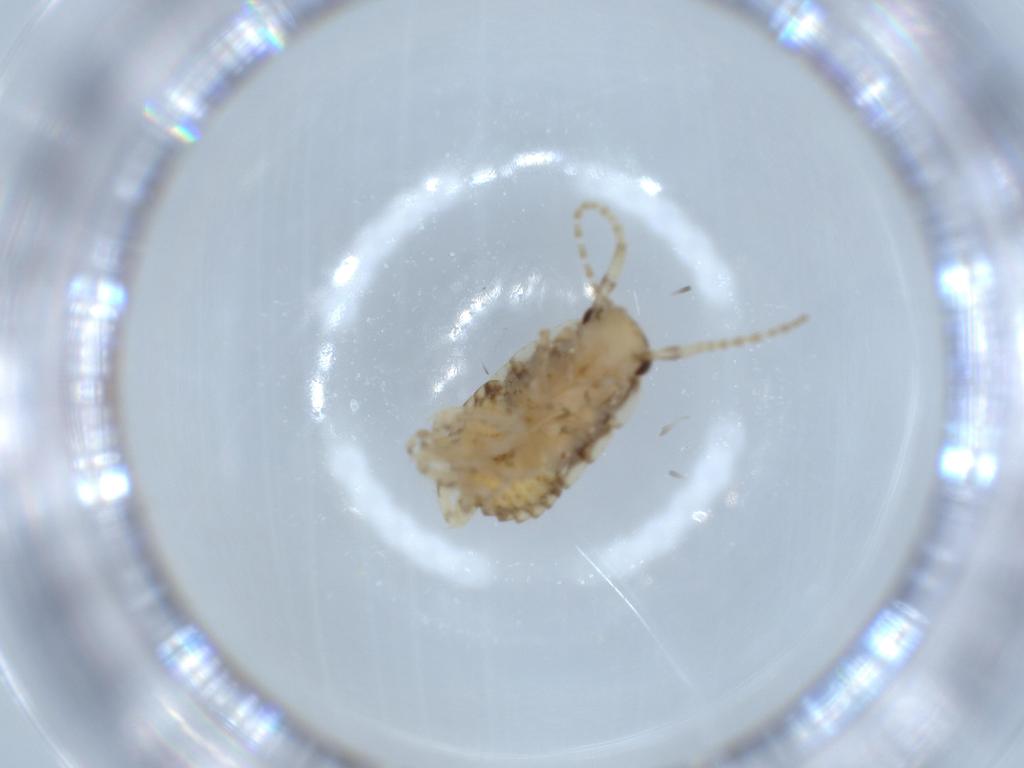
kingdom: Animalia
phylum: Arthropoda
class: Insecta
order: Blattodea
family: Ectobiidae
